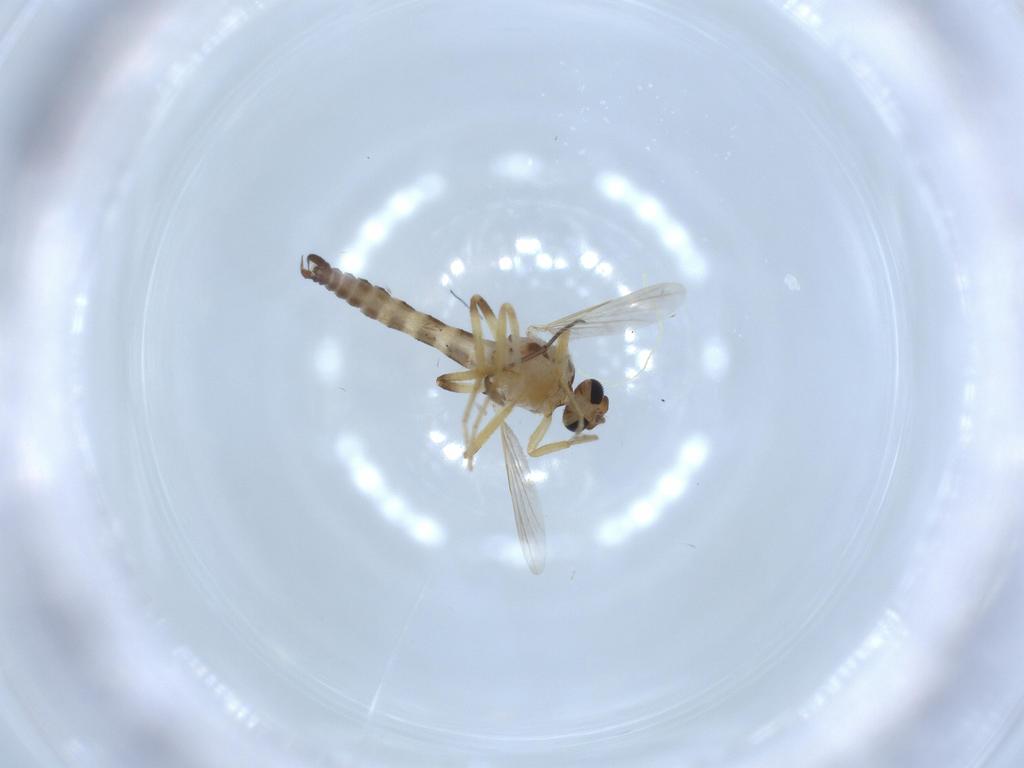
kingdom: Animalia
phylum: Arthropoda
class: Insecta
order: Diptera
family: Ceratopogonidae
